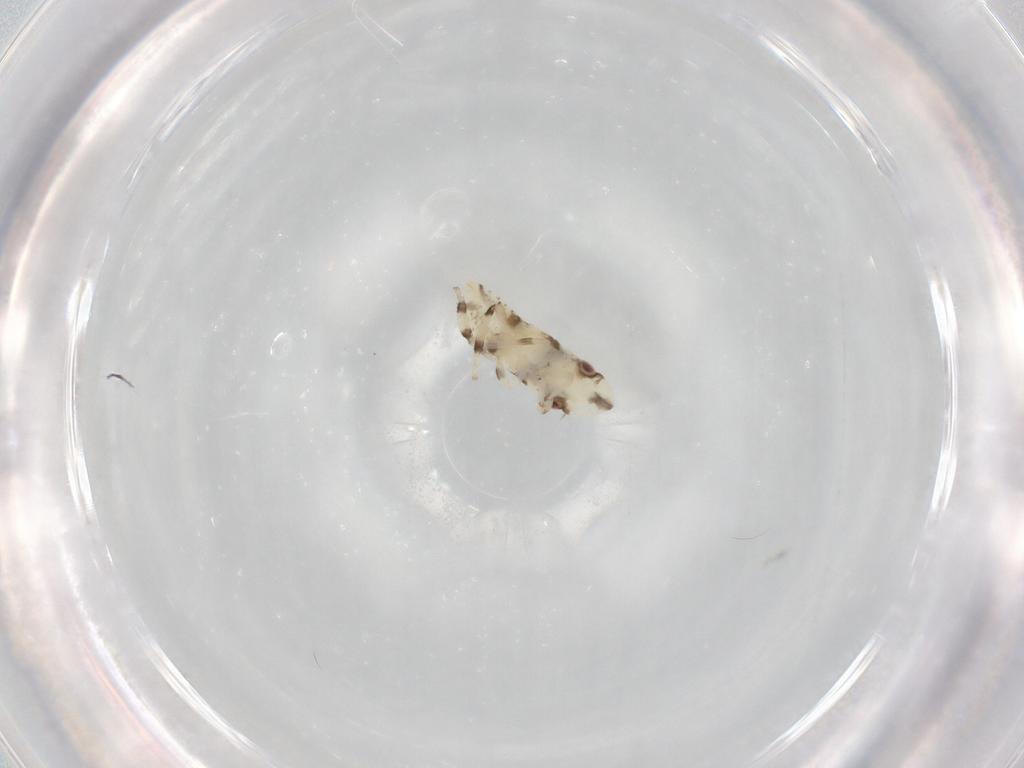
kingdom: Animalia
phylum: Arthropoda
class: Insecta
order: Hemiptera
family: Cicadellidae
